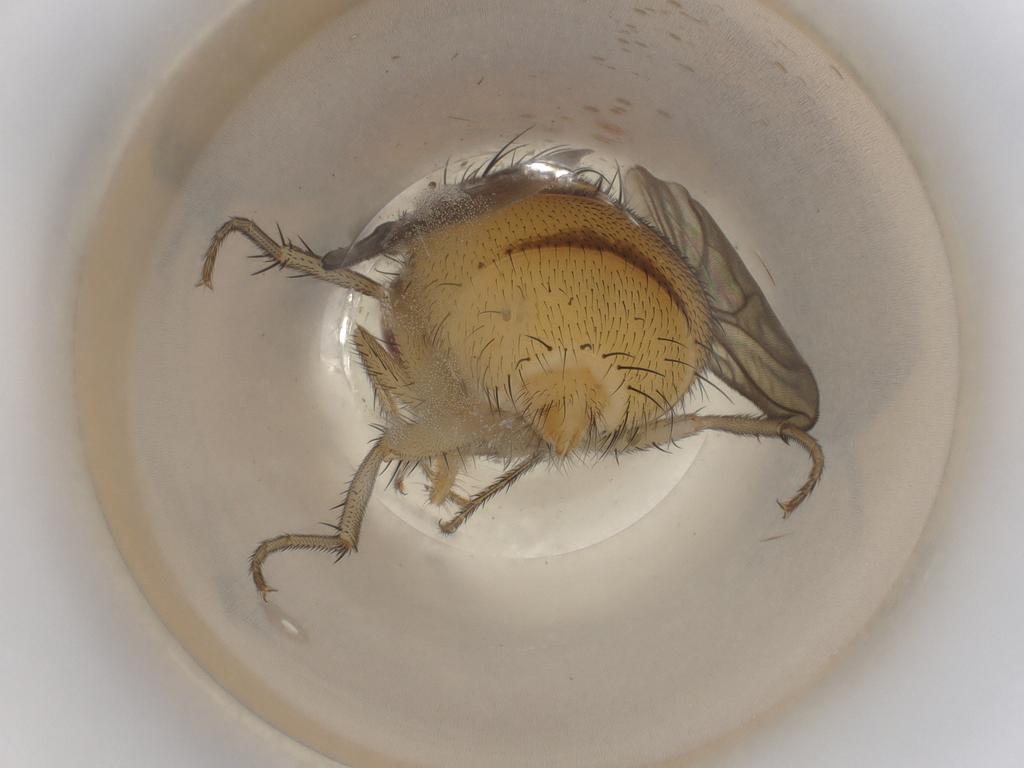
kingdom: Animalia
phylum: Arthropoda
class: Insecta
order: Diptera
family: Calliphoridae
